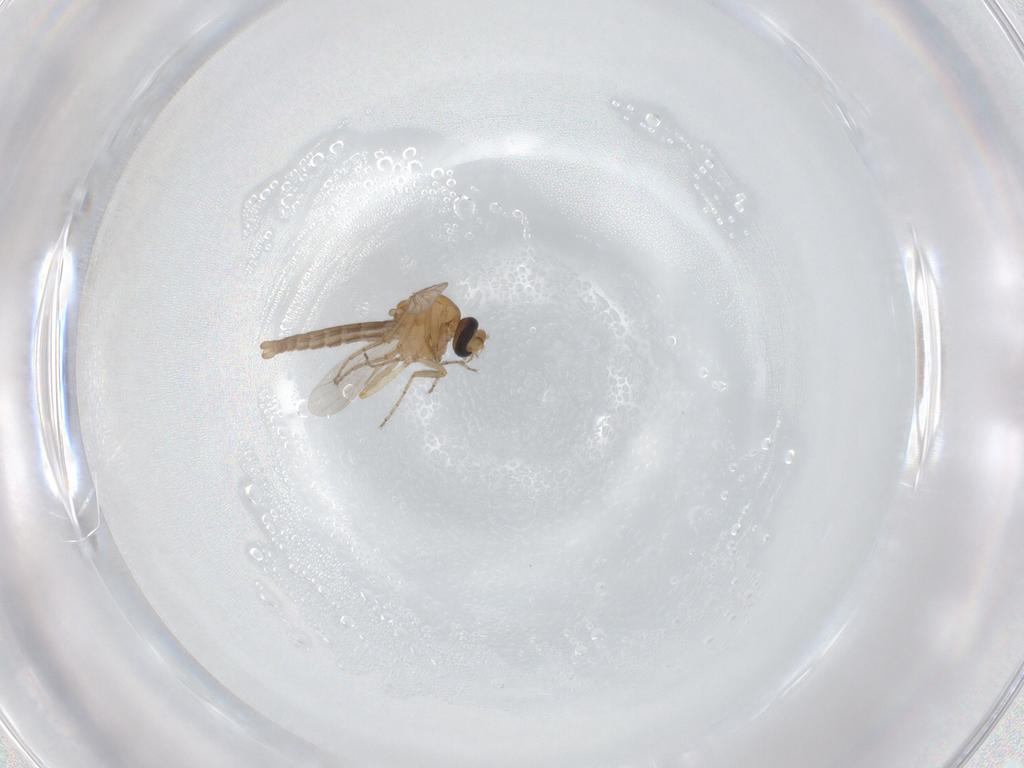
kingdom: Animalia
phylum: Arthropoda
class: Insecta
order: Diptera
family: Ceratopogonidae
